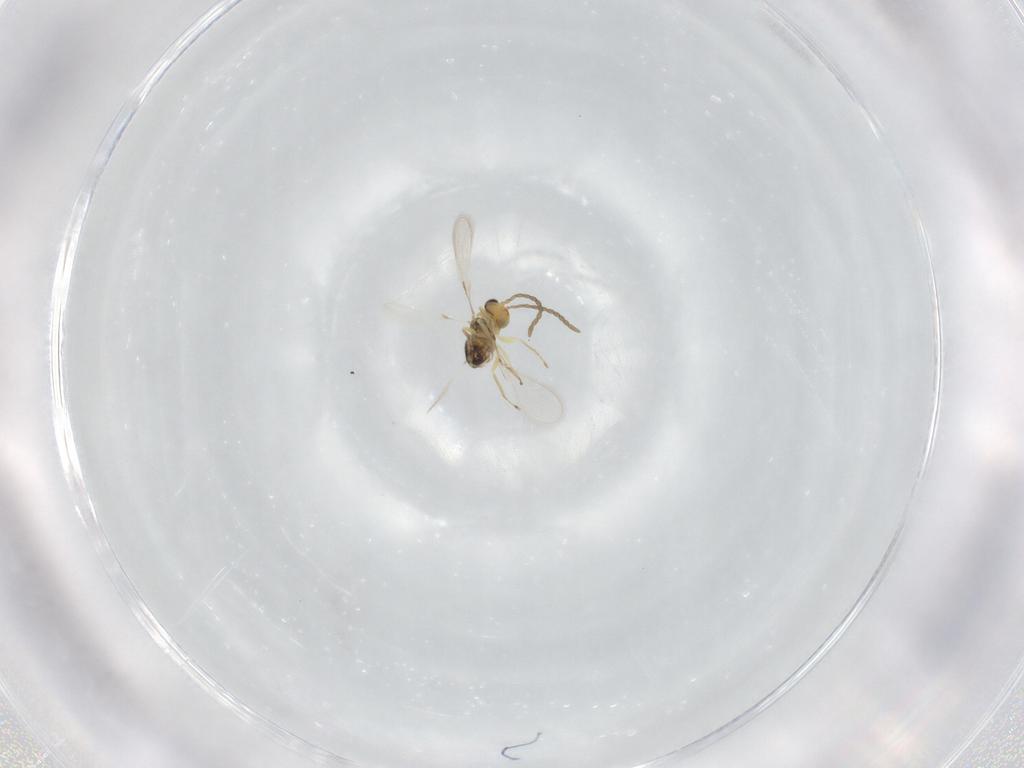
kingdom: Animalia
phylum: Arthropoda
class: Insecta
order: Hymenoptera
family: Mymaridae
